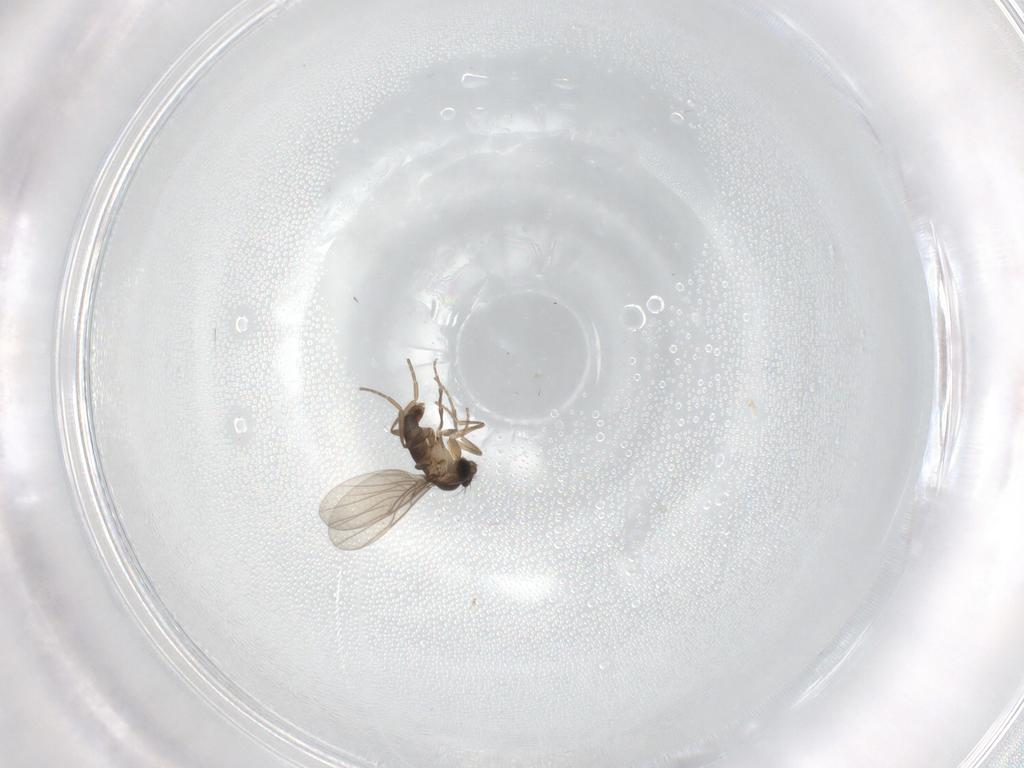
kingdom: Animalia
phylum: Arthropoda
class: Insecta
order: Diptera
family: Phoridae
